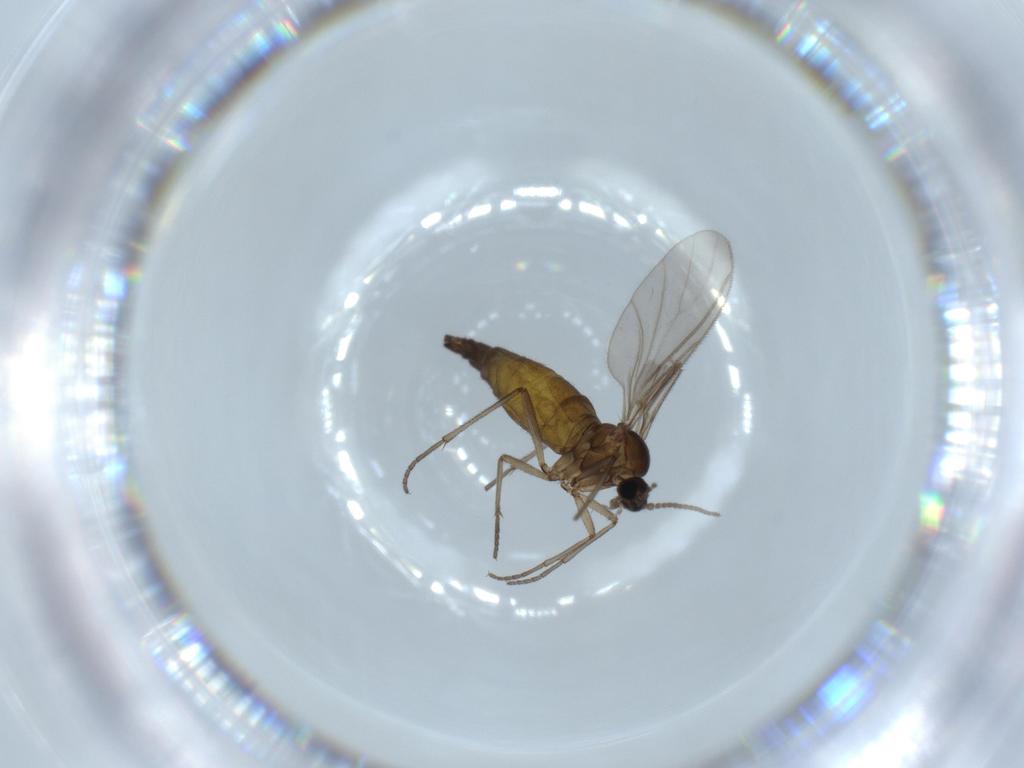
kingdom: Animalia
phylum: Arthropoda
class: Insecta
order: Diptera
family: Sciaridae
